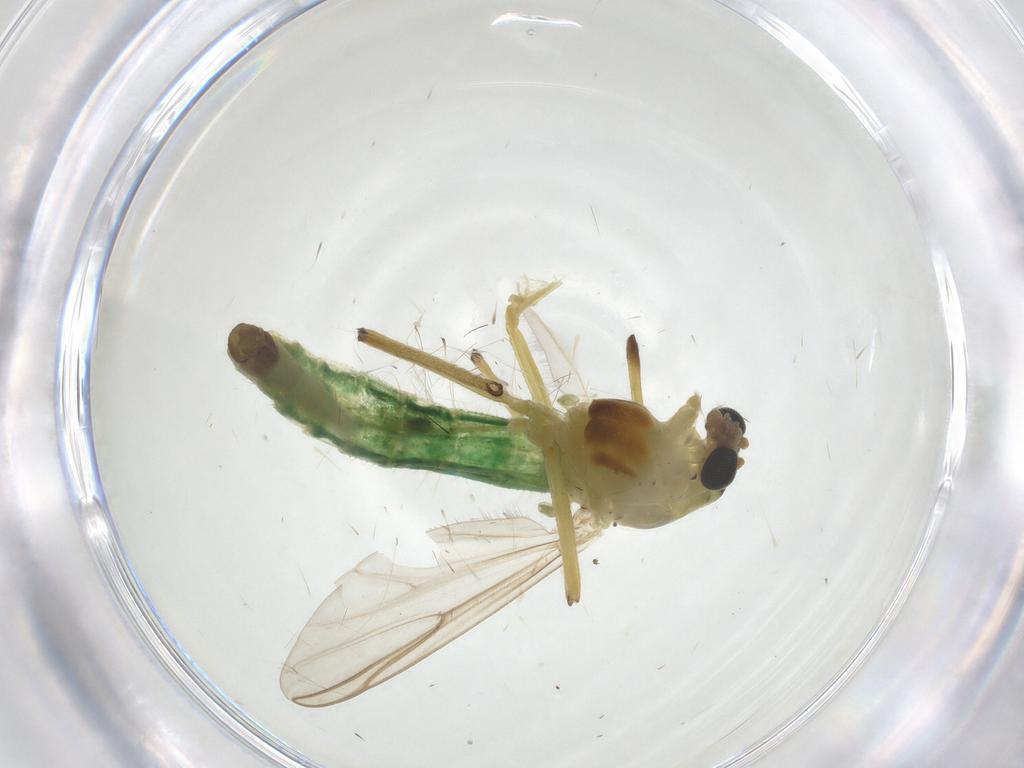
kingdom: Animalia
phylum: Arthropoda
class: Insecta
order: Diptera
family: Chironomidae
